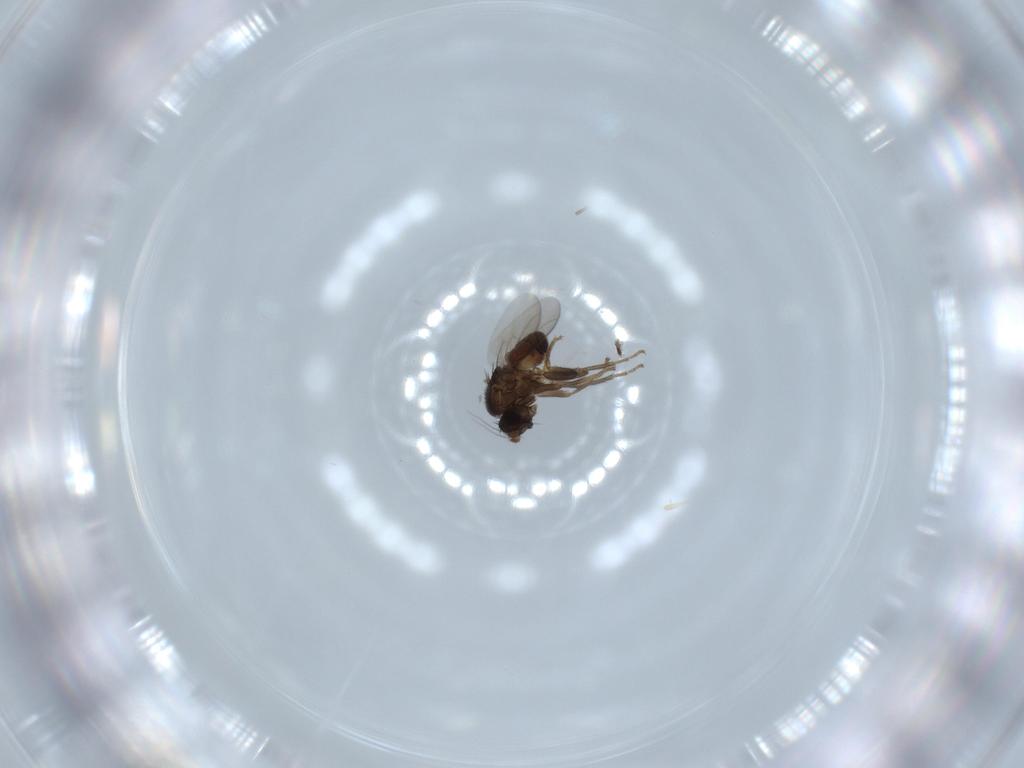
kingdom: Animalia
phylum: Arthropoda
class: Insecta
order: Diptera
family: Sphaeroceridae
